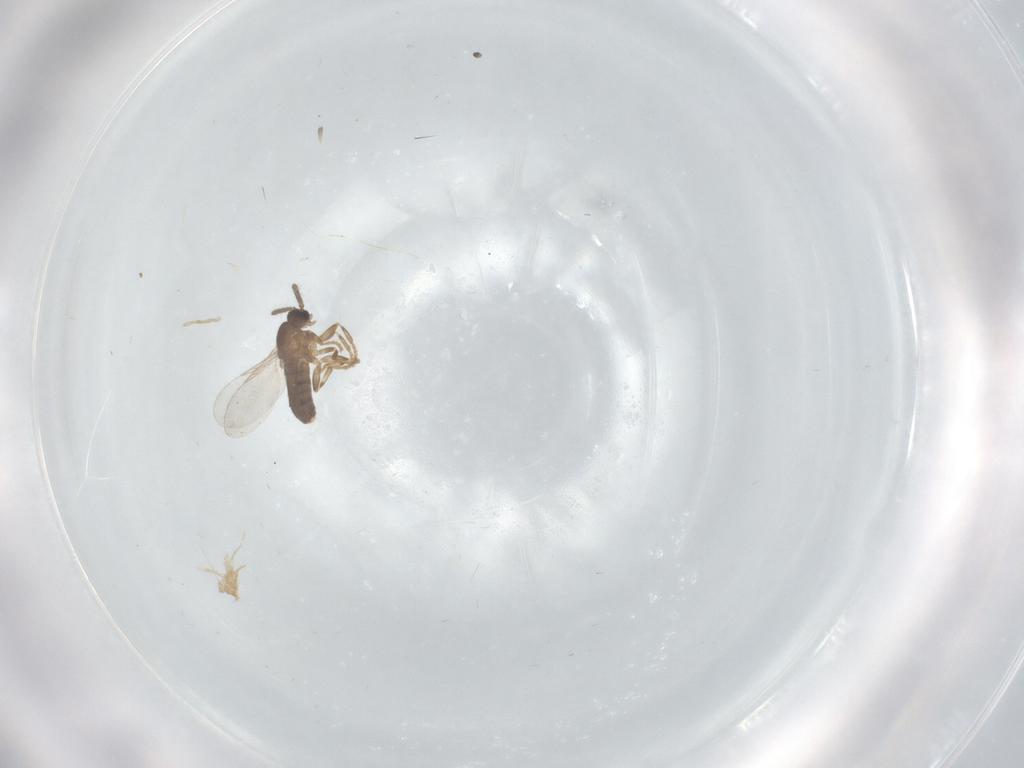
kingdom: Animalia
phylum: Arthropoda
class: Insecta
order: Diptera
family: Scatopsidae
